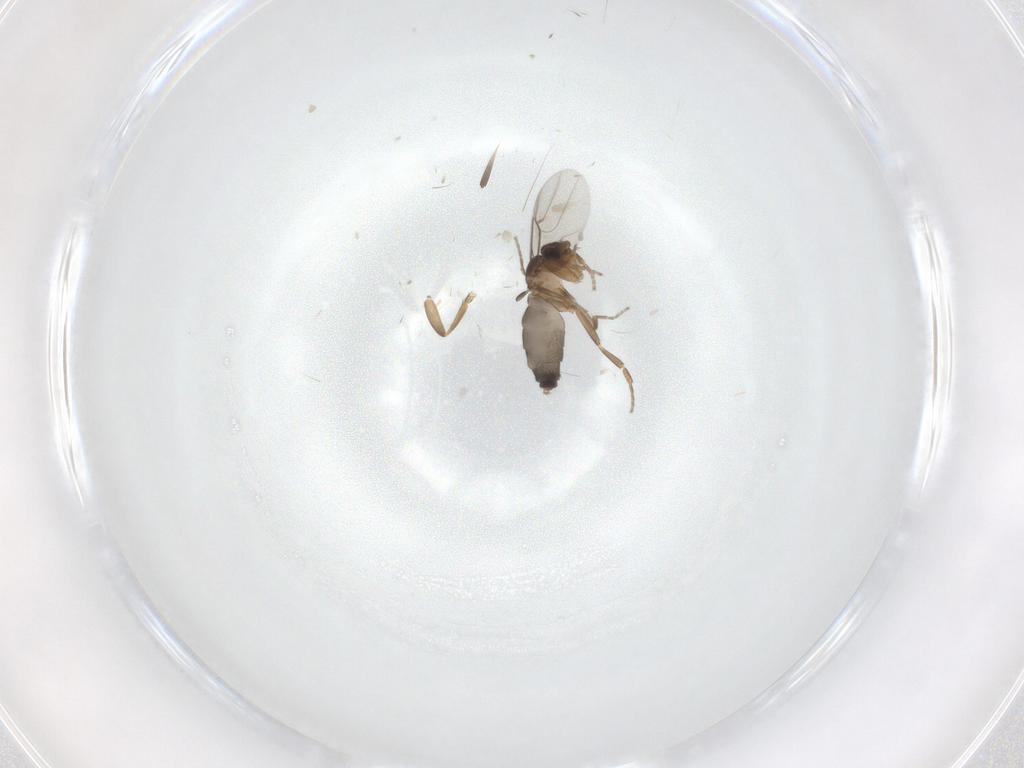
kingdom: Animalia
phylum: Arthropoda
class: Insecta
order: Diptera
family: Phoridae
